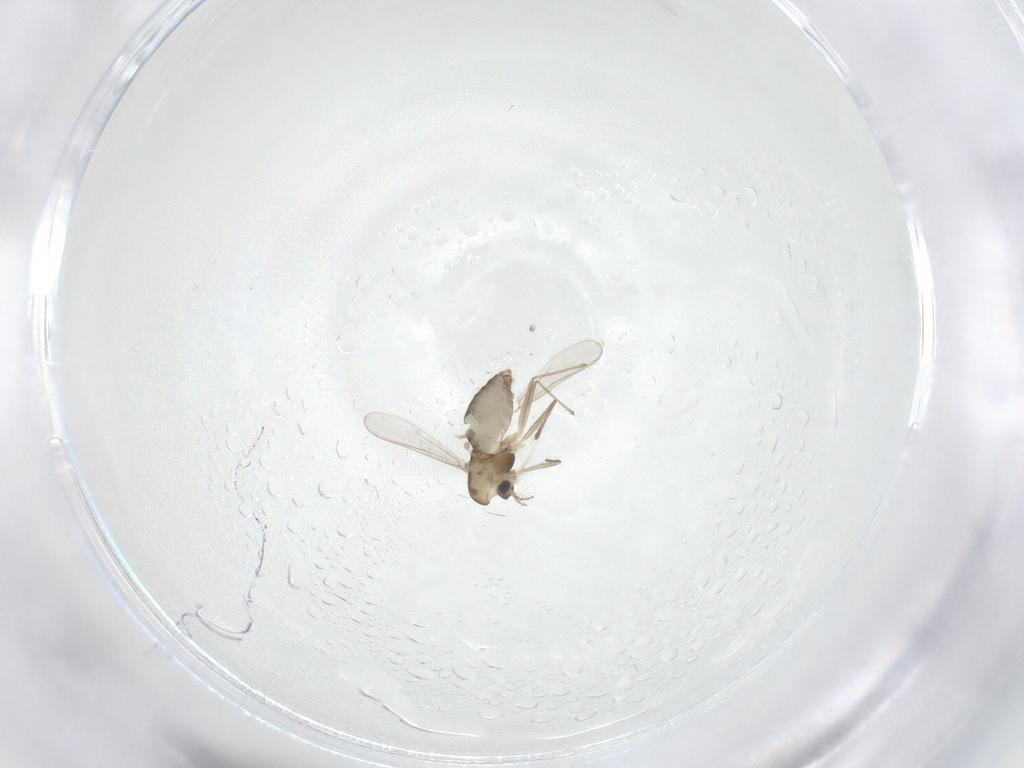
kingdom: Animalia
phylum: Arthropoda
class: Insecta
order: Diptera
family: Chironomidae
